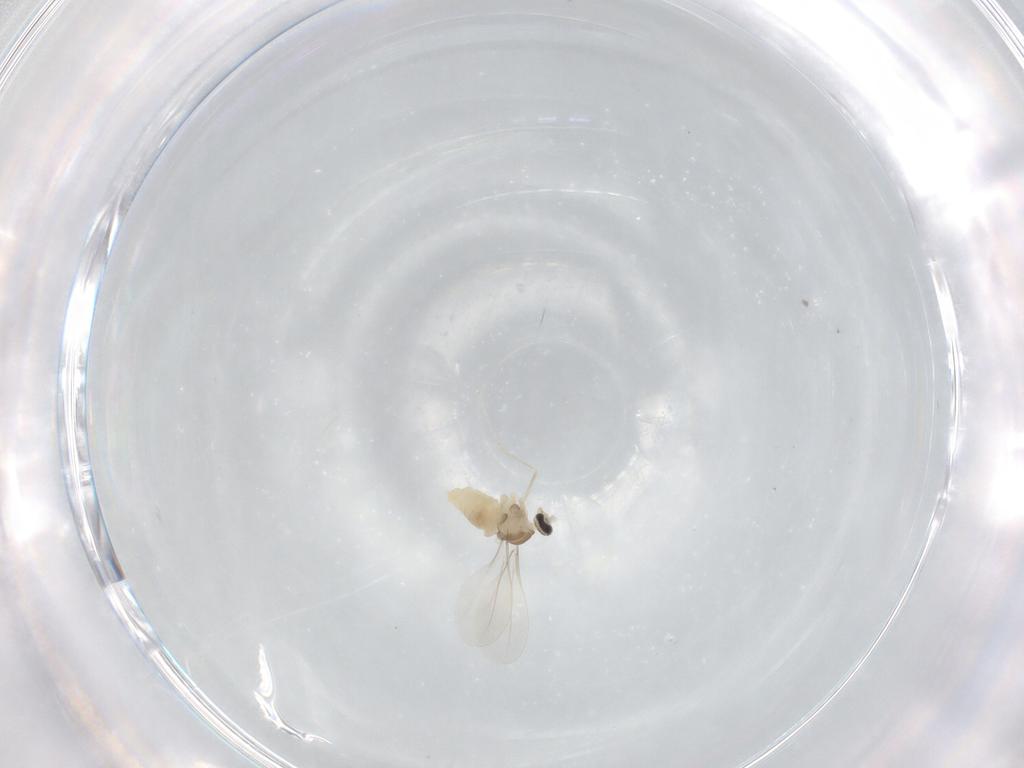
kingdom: Animalia
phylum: Arthropoda
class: Insecta
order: Diptera
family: Cecidomyiidae
